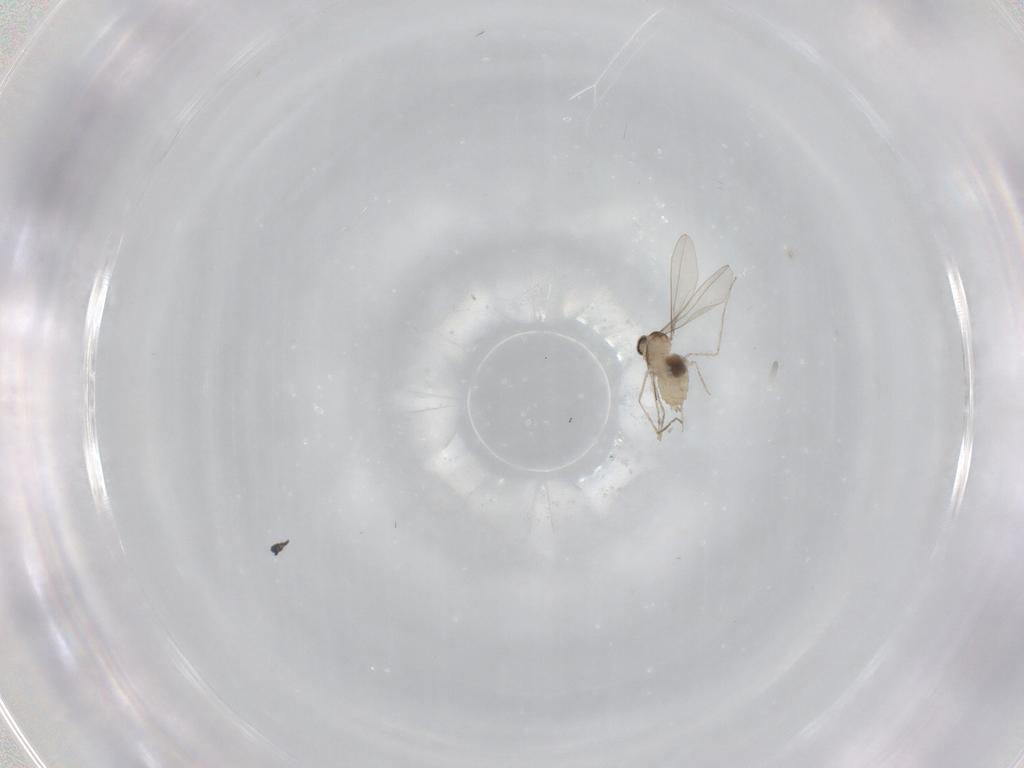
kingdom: Animalia
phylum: Arthropoda
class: Insecta
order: Diptera
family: Cecidomyiidae
